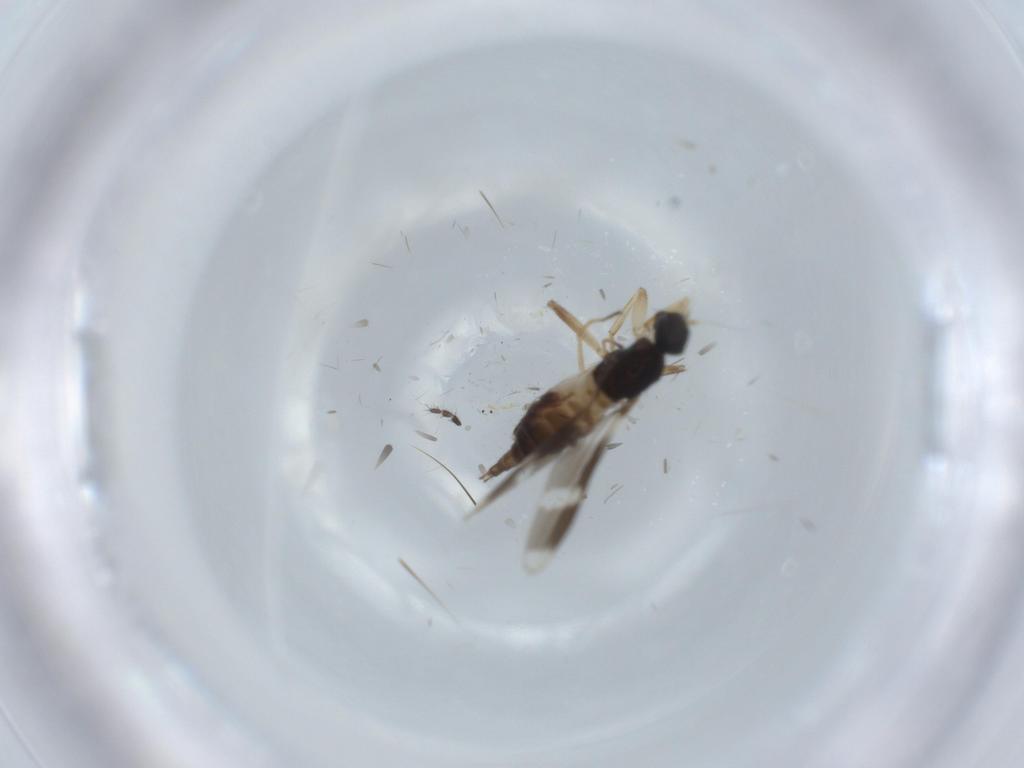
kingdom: Animalia
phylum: Arthropoda
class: Insecta
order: Diptera
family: Hybotidae
